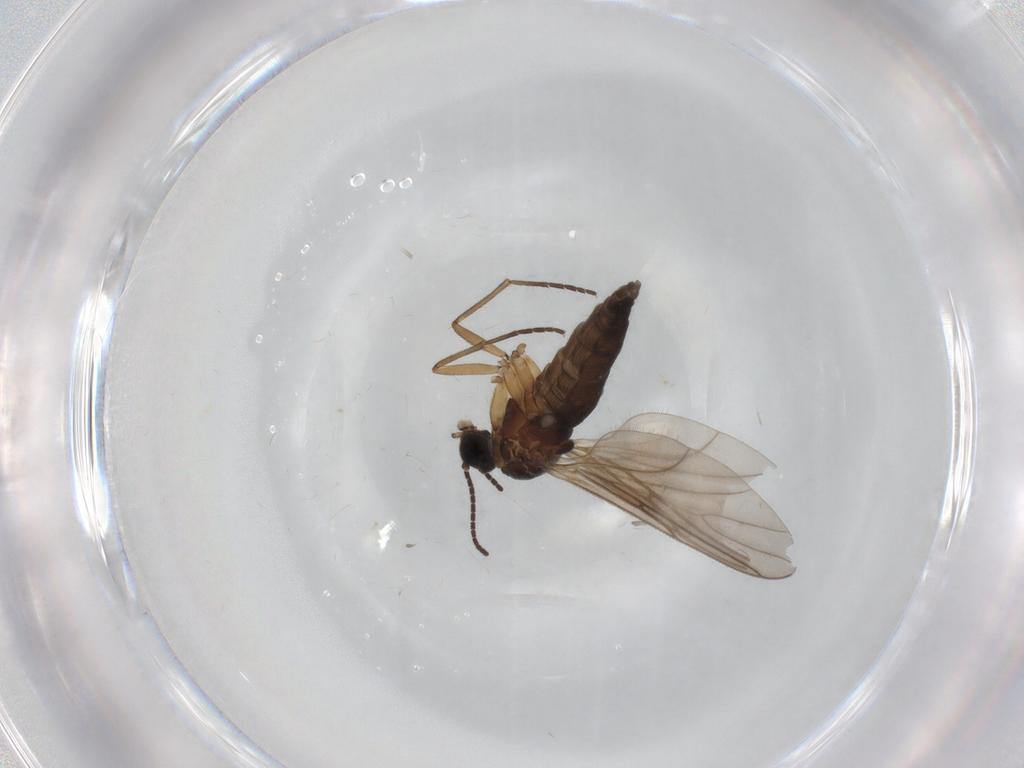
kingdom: Animalia
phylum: Arthropoda
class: Insecta
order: Diptera
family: Sciaridae
